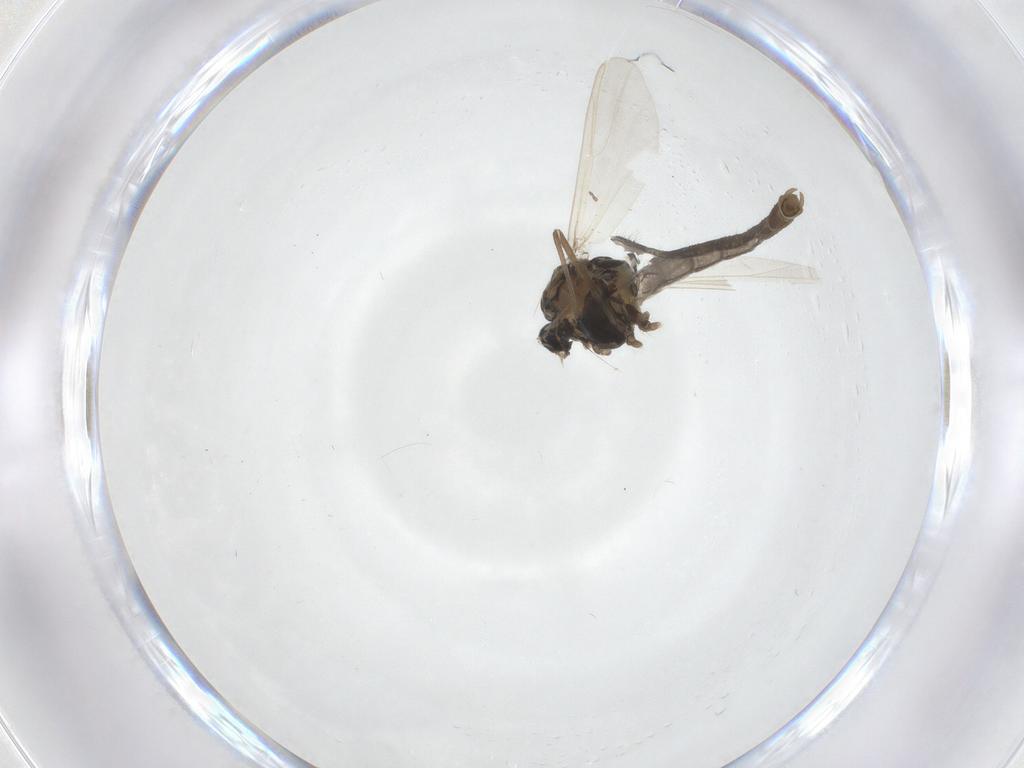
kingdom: Animalia
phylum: Arthropoda
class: Insecta
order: Diptera
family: Chironomidae
